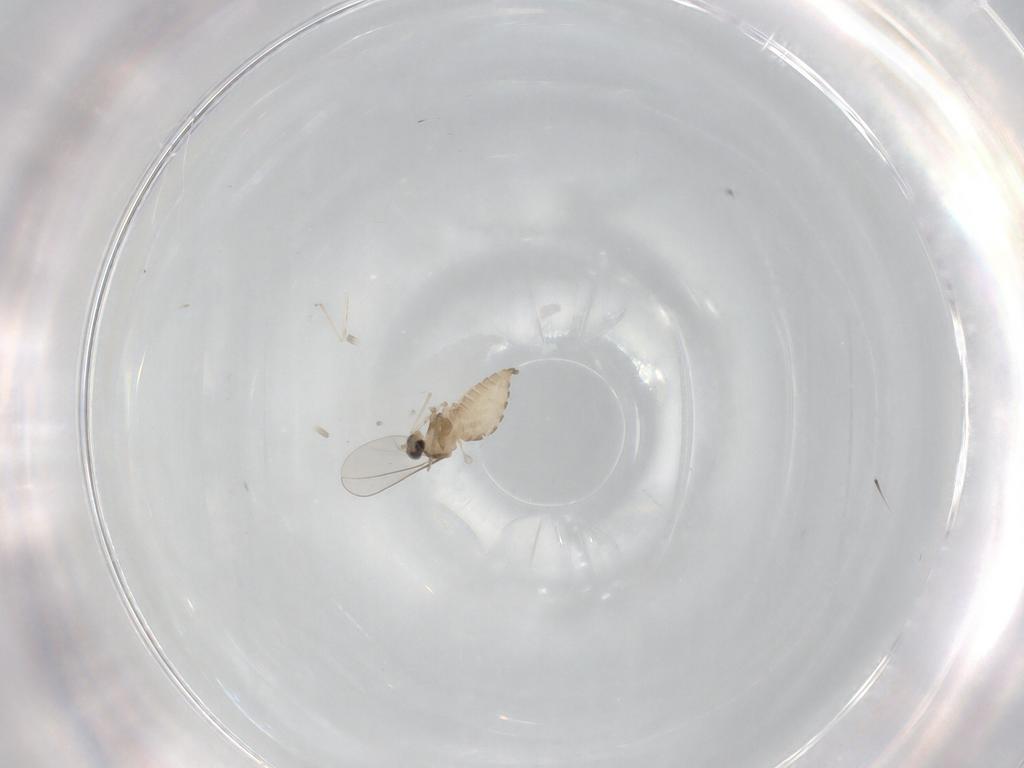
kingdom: Animalia
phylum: Arthropoda
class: Insecta
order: Diptera
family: Cecidomyiidae
